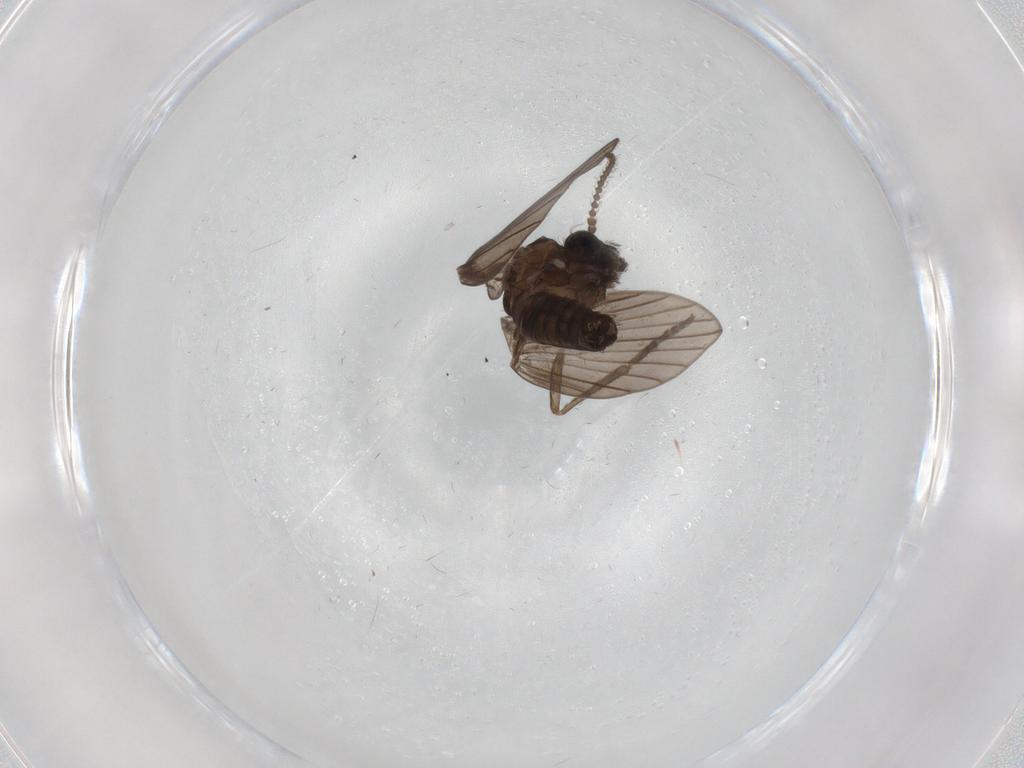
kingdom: Animalia
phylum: Arthropoda
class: Insecta
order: Diptera
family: Psychodidae
